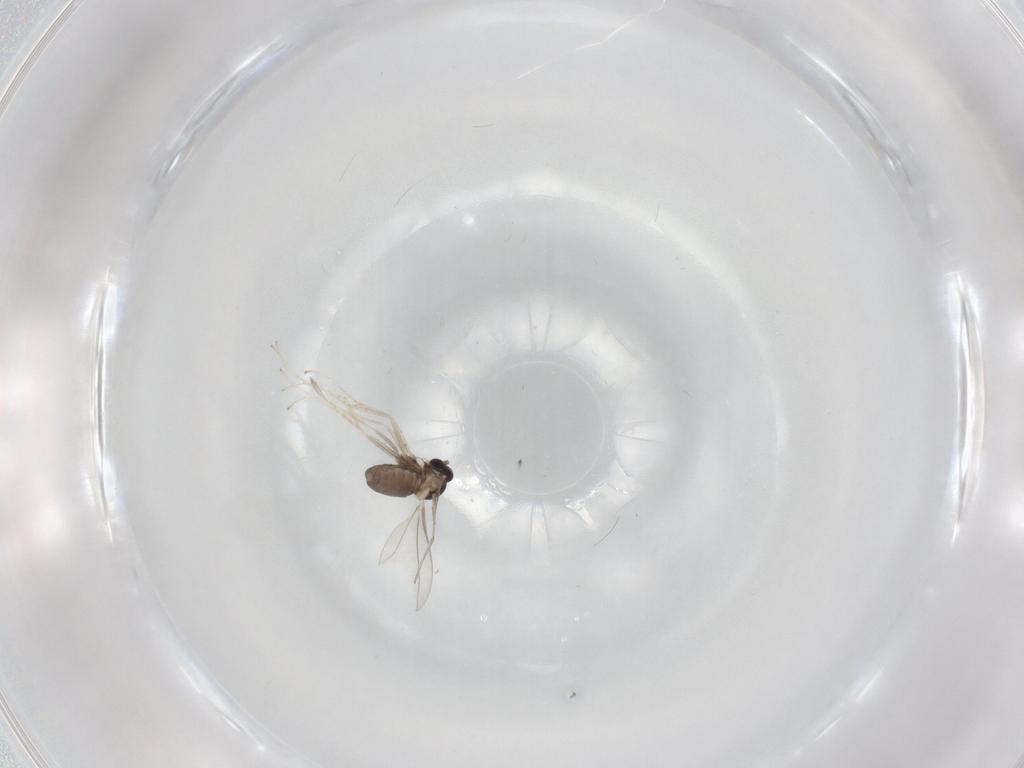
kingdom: Animalia
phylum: Arthropoda
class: Insecta
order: Diptera
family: Cecidomyiidae
